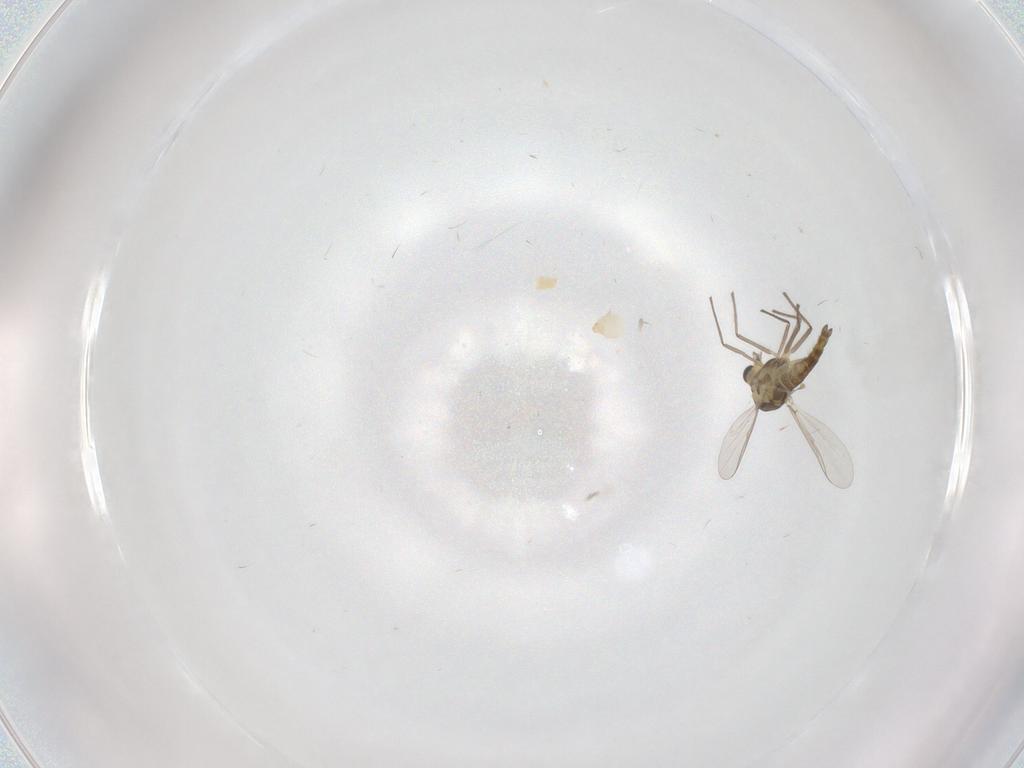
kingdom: Animalia
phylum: Arthropoda
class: Insecta
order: Diptera
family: Chironomidae
